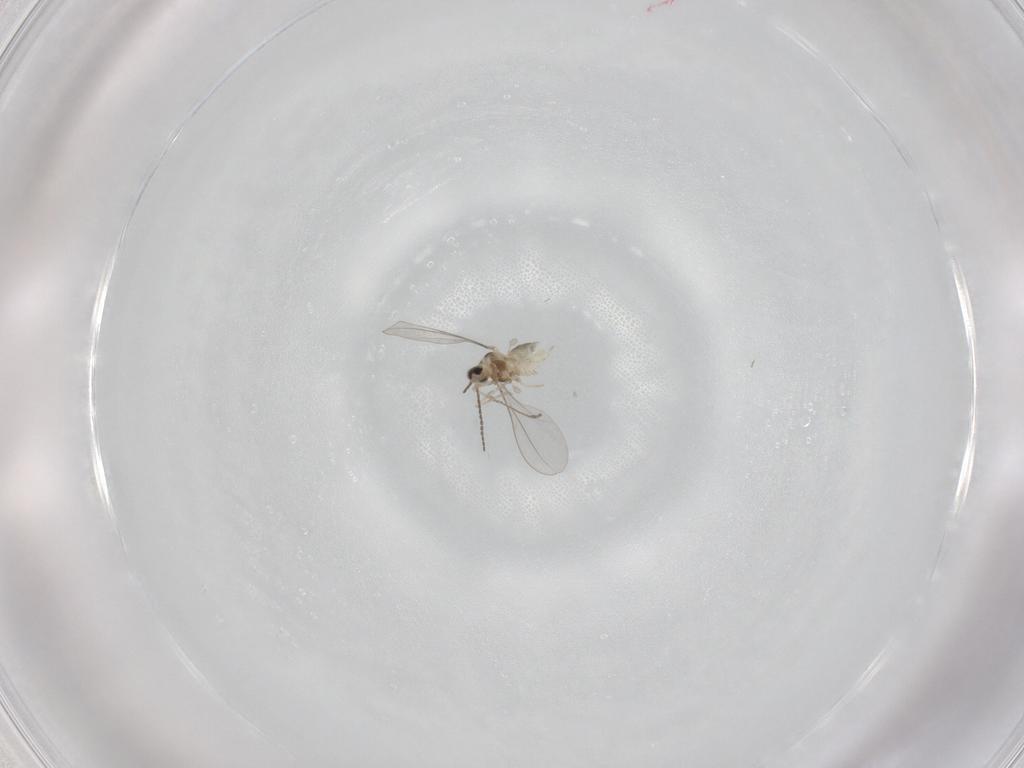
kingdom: Animalia
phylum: Arthropoda
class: Insecta
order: Diptera
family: Cecidomyiidae
